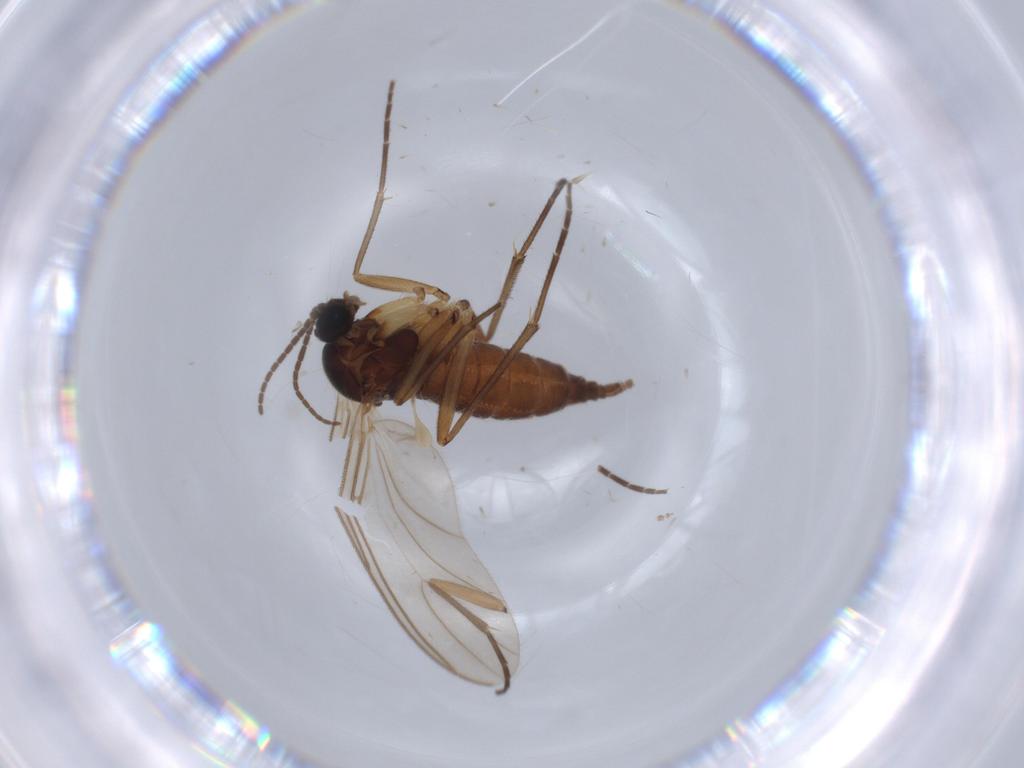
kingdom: Animalia
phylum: Arthropoda
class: Insecta
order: Diptera
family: Sciaridae
